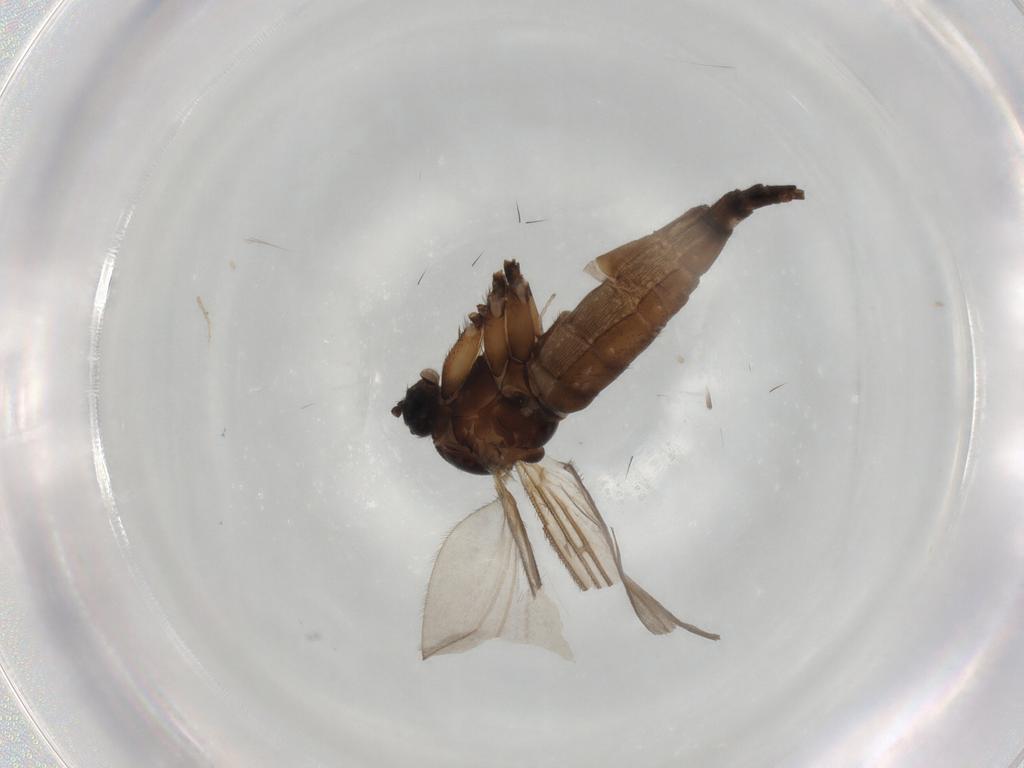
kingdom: Animalia
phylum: Arthropoda
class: Insecta
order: Diptera
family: Sciaridae
